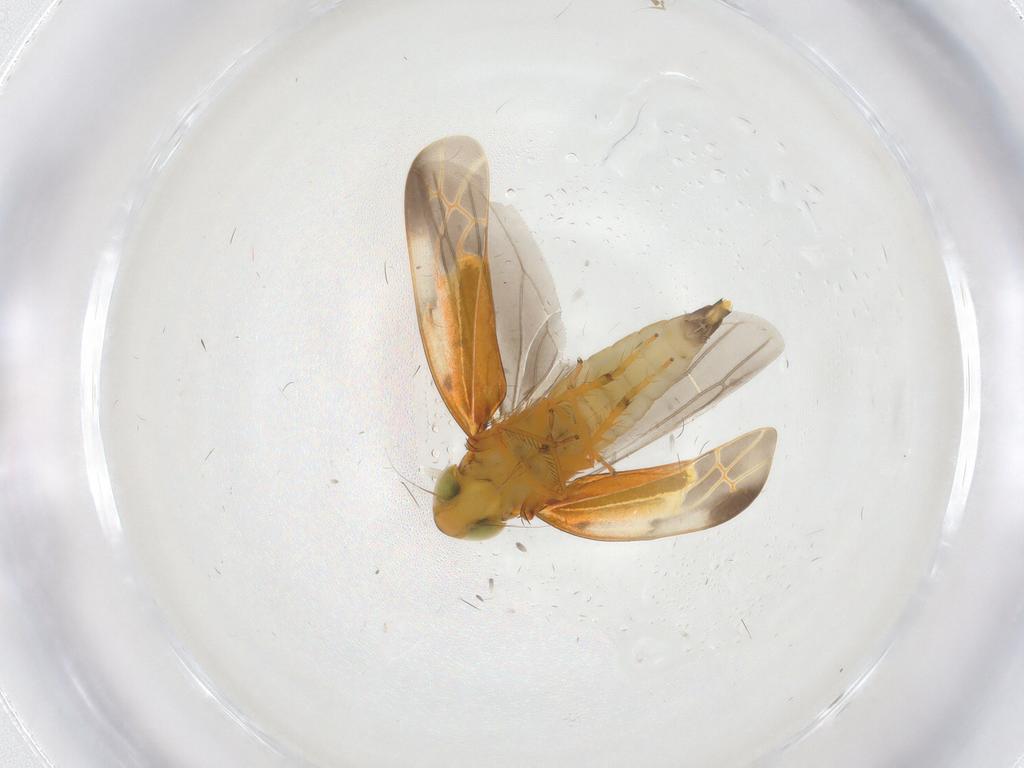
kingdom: Animalia
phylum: Arthropoda
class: Insecta
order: Hemiptera
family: Cicadellidae
